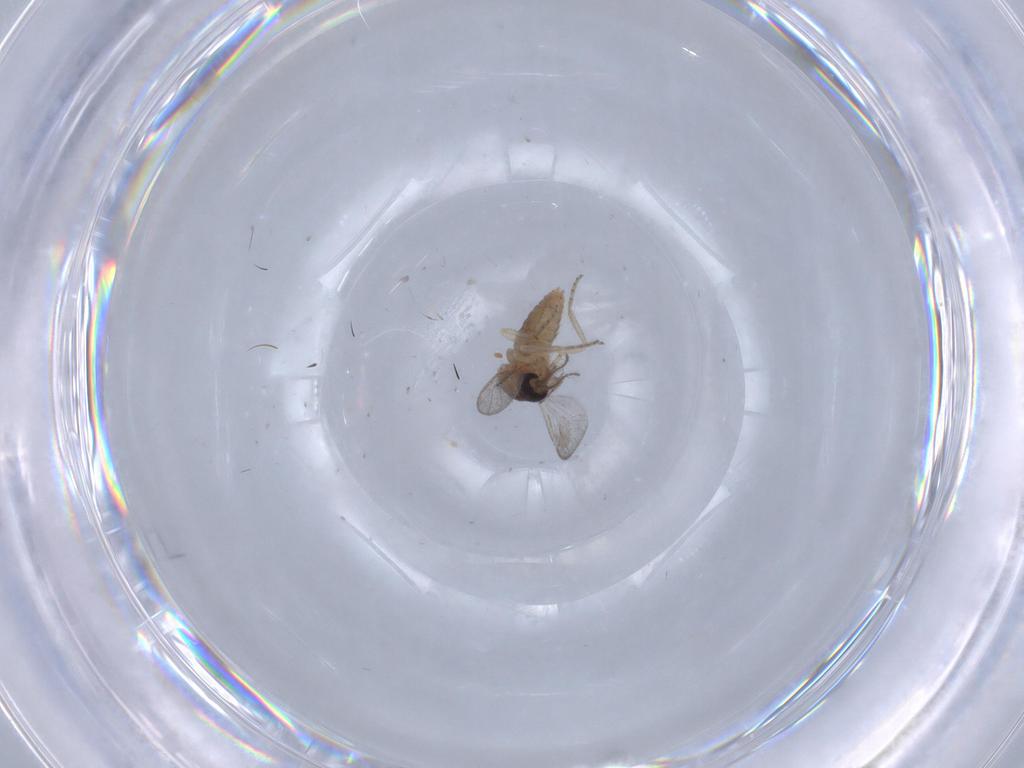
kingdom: Animalia
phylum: Arthropoda
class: Insecta
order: Diptera
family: Ceratopogonidae
